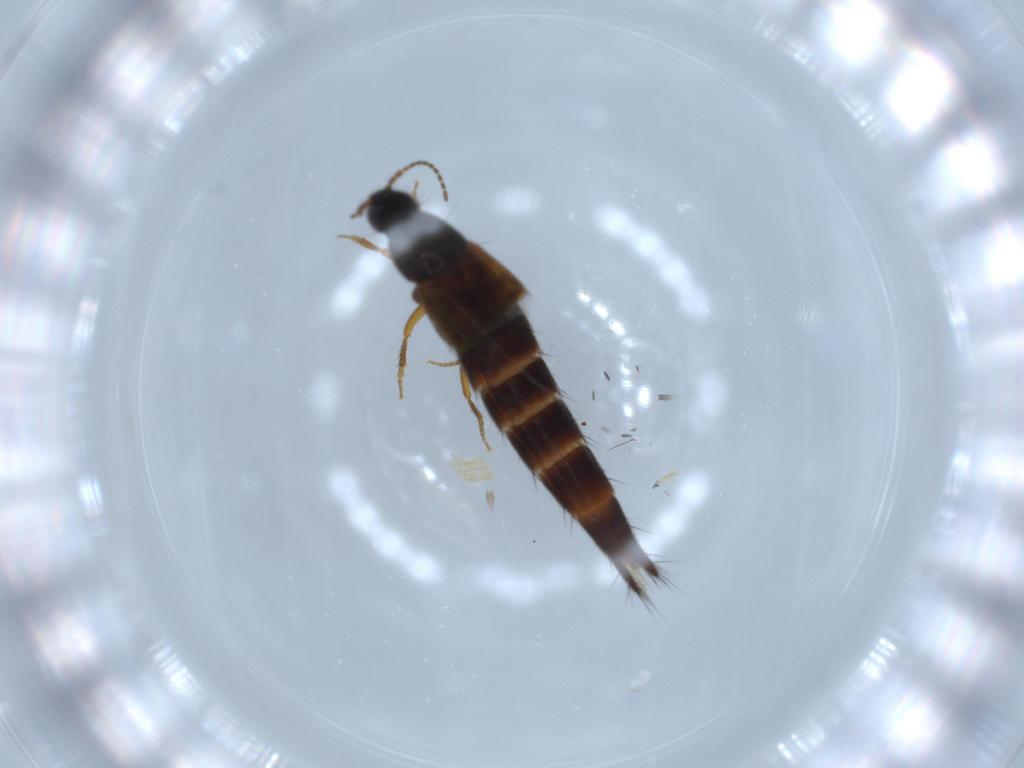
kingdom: Animalia
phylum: Arthropoda
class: Insecta
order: Coleoptera
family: Staphylinidae
